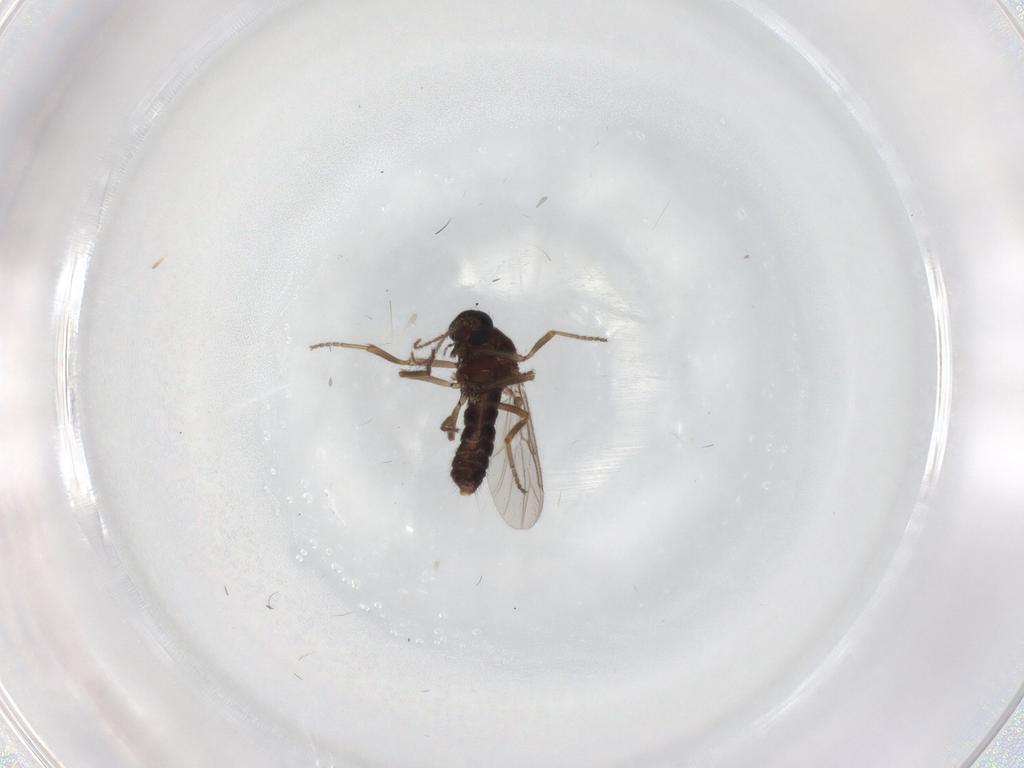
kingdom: Animalia
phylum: Arthropoda
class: Insecta
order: Diptera
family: Ceratopogonidae
